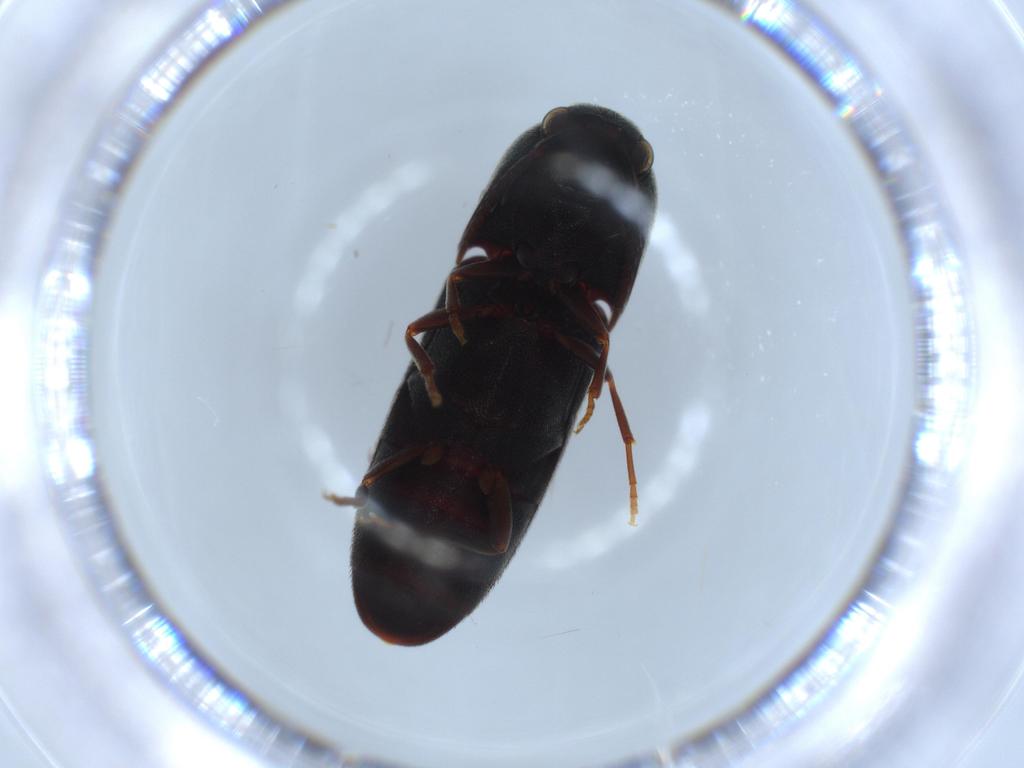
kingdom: Animalia
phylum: Arthropoda
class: Insecta
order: Coleoptera
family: Eucnemidae
